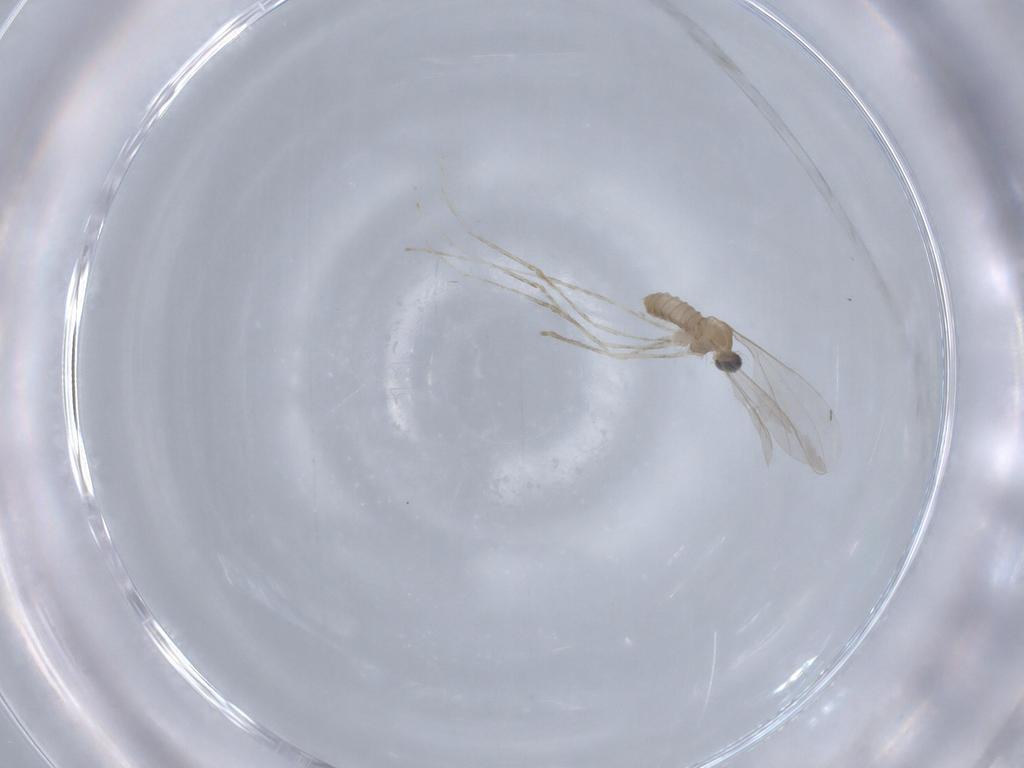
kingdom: Animalia
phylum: Arthropoda
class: Insecta
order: Diptera
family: Cecidomyiidae
